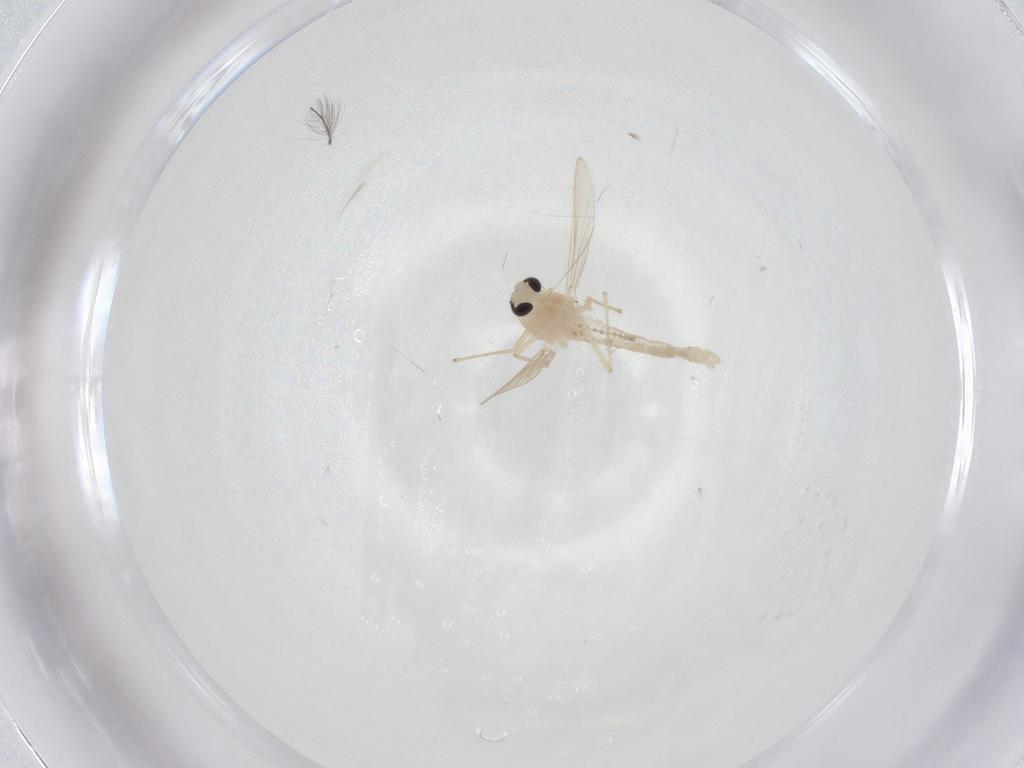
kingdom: Animalia
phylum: Arthropoda
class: Insecta
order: Diptera
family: Chironomidae
